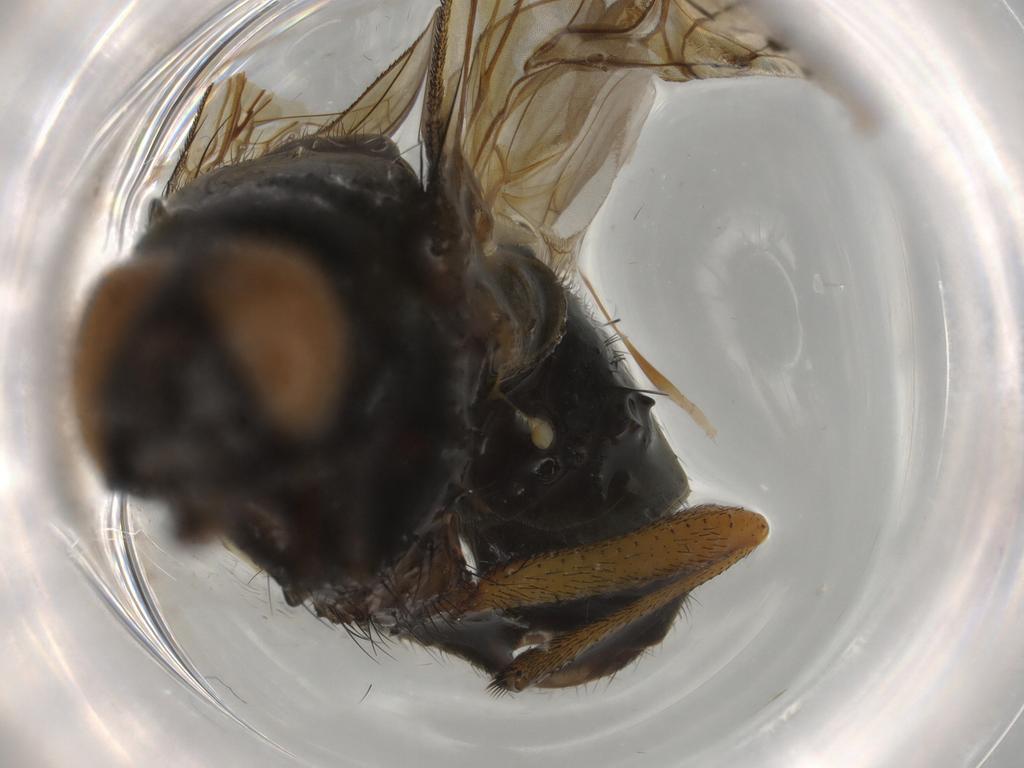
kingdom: Animalia
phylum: Arthropoda
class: Insecta
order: Diptera
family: Muscidae
